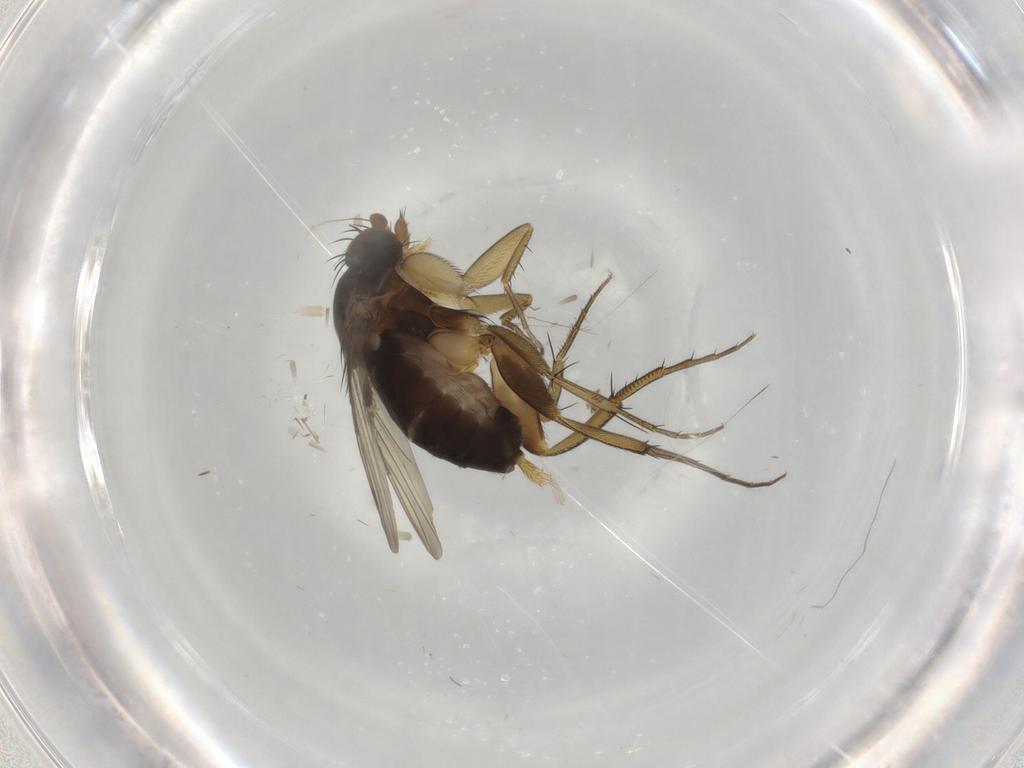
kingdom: Animalia
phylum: Arthropoda
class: Insecta
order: Diptera
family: Phoridae
